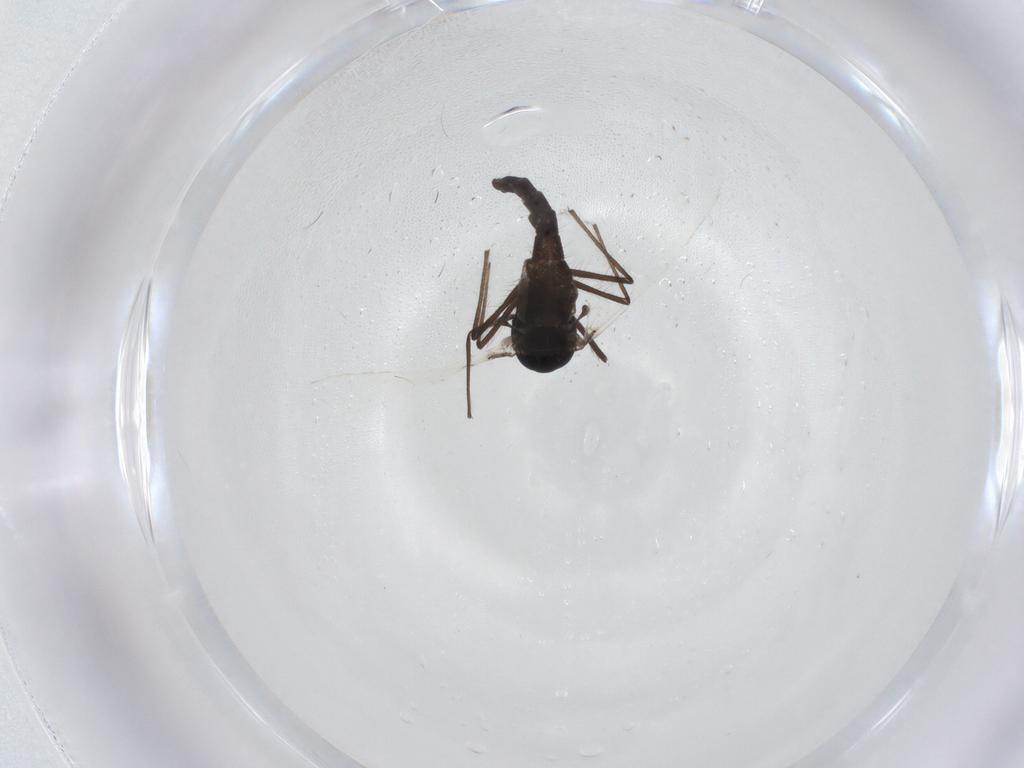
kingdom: Animalia
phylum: Arthropoda
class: Insecta
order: Diptera
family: Chironomidae
